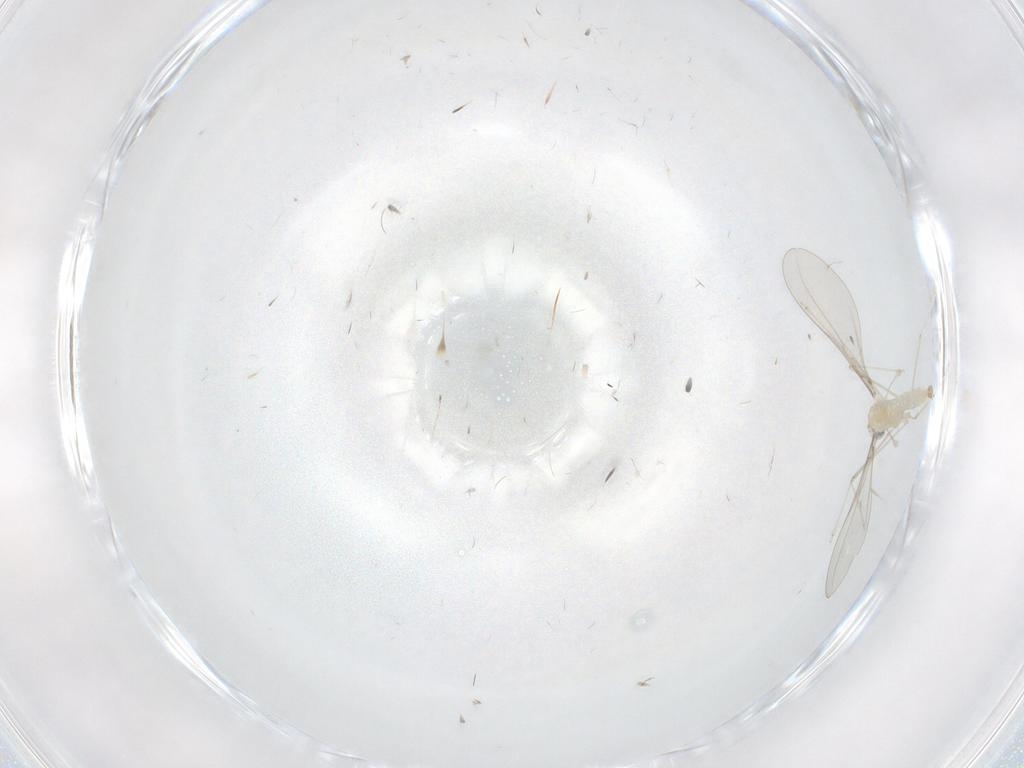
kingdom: Animalia
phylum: Arthropoda
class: Insecta
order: Diptera
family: Cecidomyiidae
